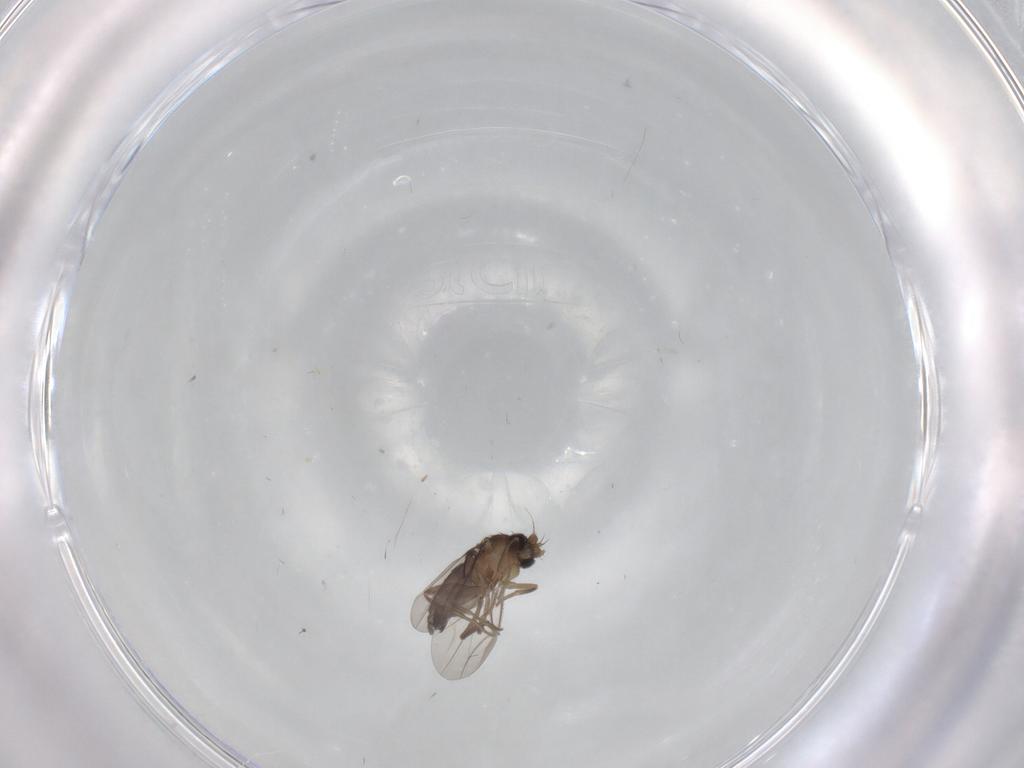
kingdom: Animalia
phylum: Arthropoda
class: Insecta
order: Diptera
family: Phoridae
